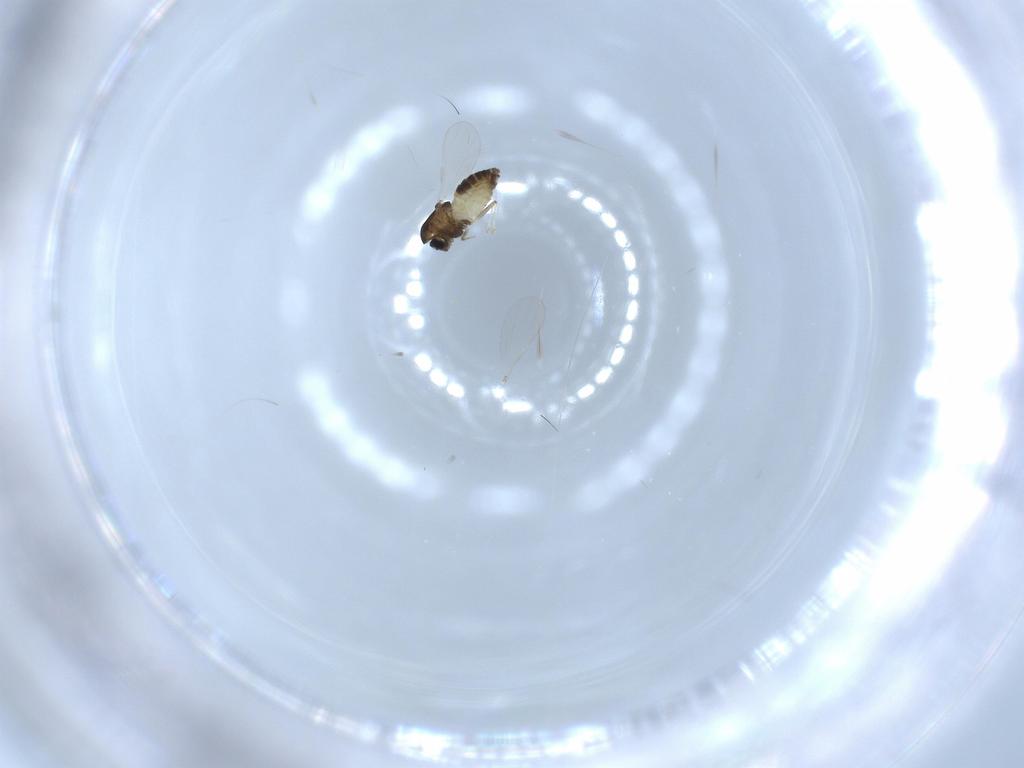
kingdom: Animalia
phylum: Arthropoda
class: Insecta
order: Diptera
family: Chironomidae
